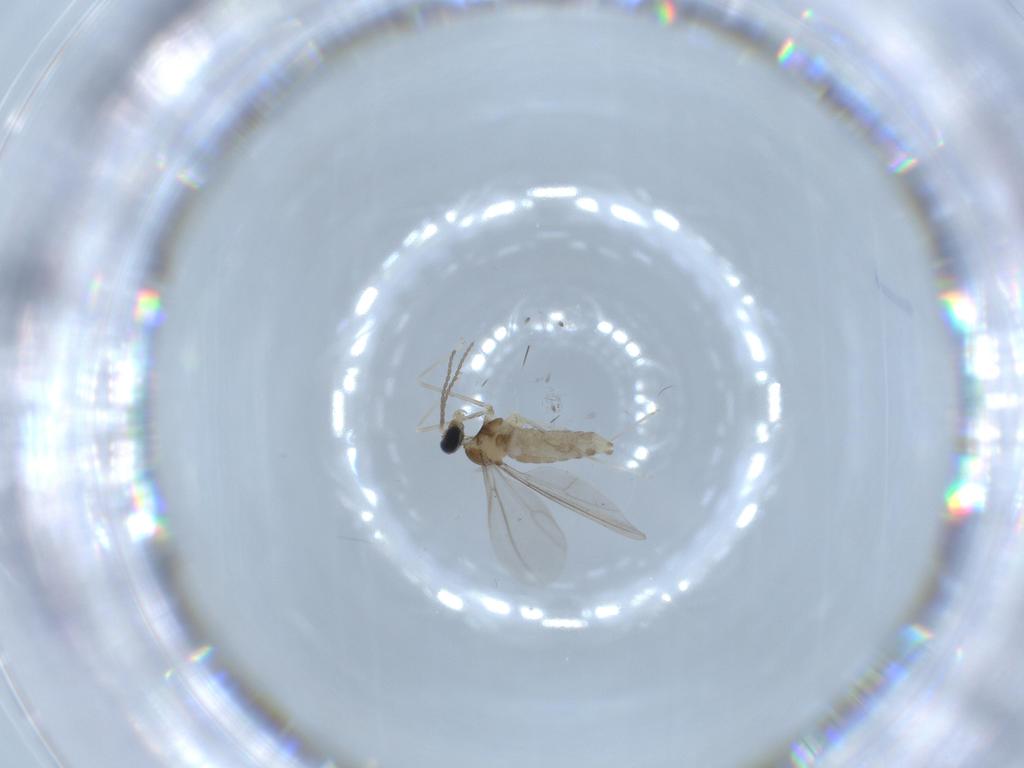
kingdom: Animalia
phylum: Arthropoda
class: Insecta
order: Diptera
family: Cecidomyiidae
